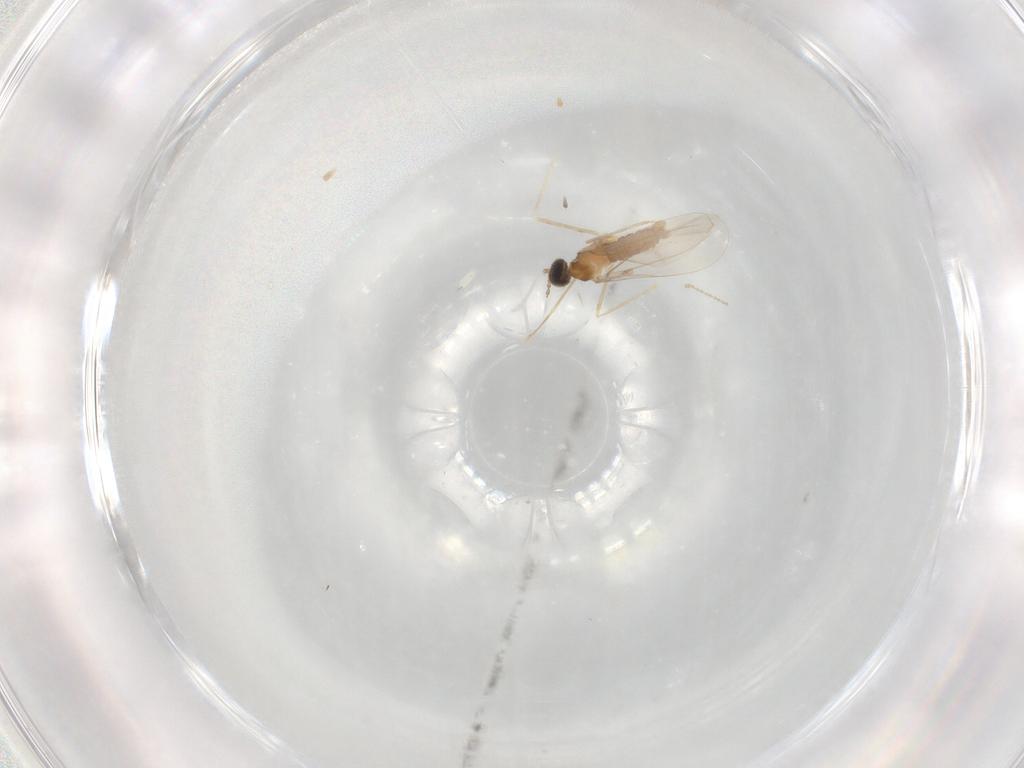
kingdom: Animalia
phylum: Arthropoda
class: Insecta
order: Diptera
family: Cecidomyiidae
